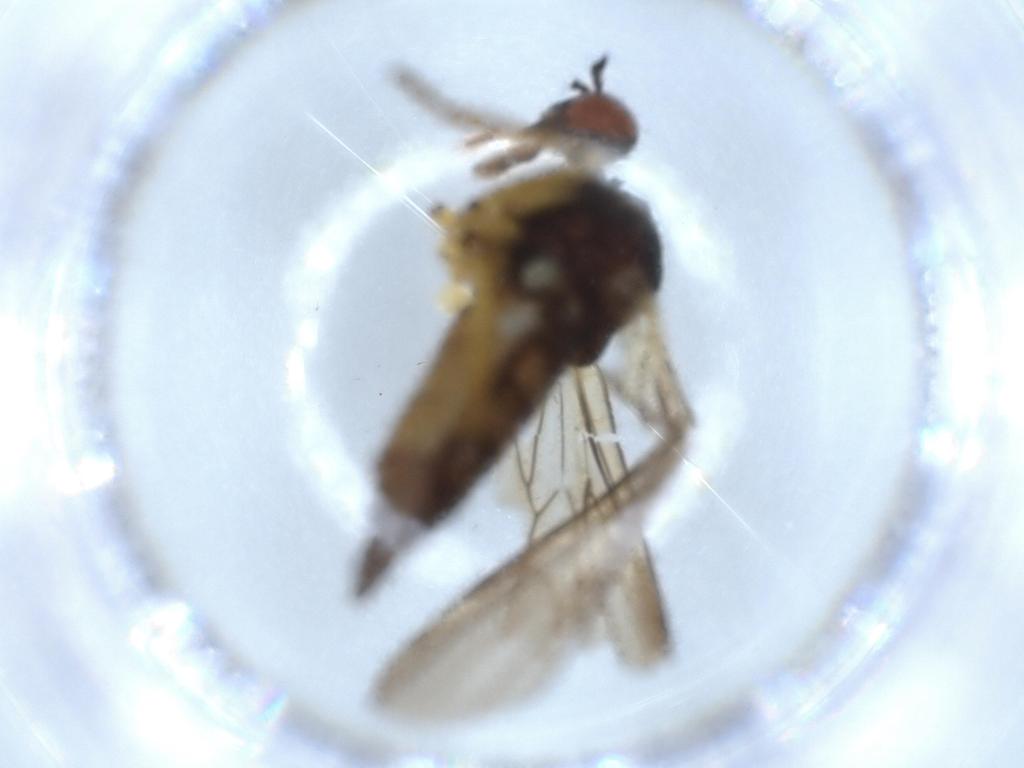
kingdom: Animalia
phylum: Arthropoda
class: Insecta
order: Diptera
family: Empididae
